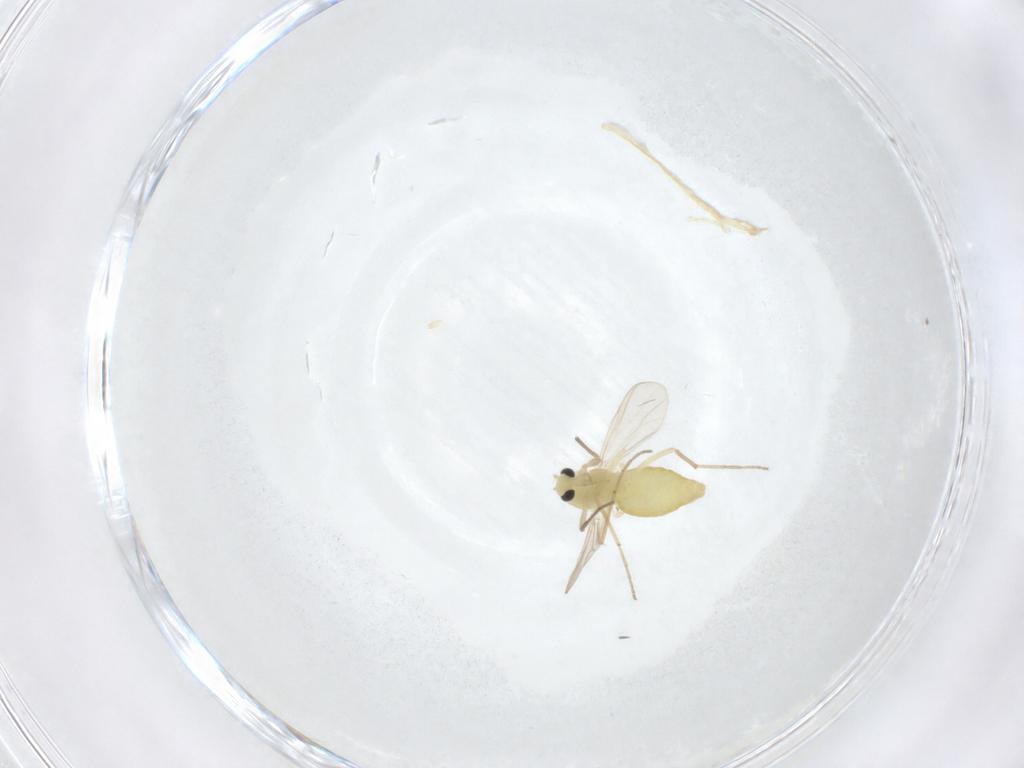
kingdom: Animalia
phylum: Arthropoda
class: Insecta
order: Diptera
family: Chironomidae
